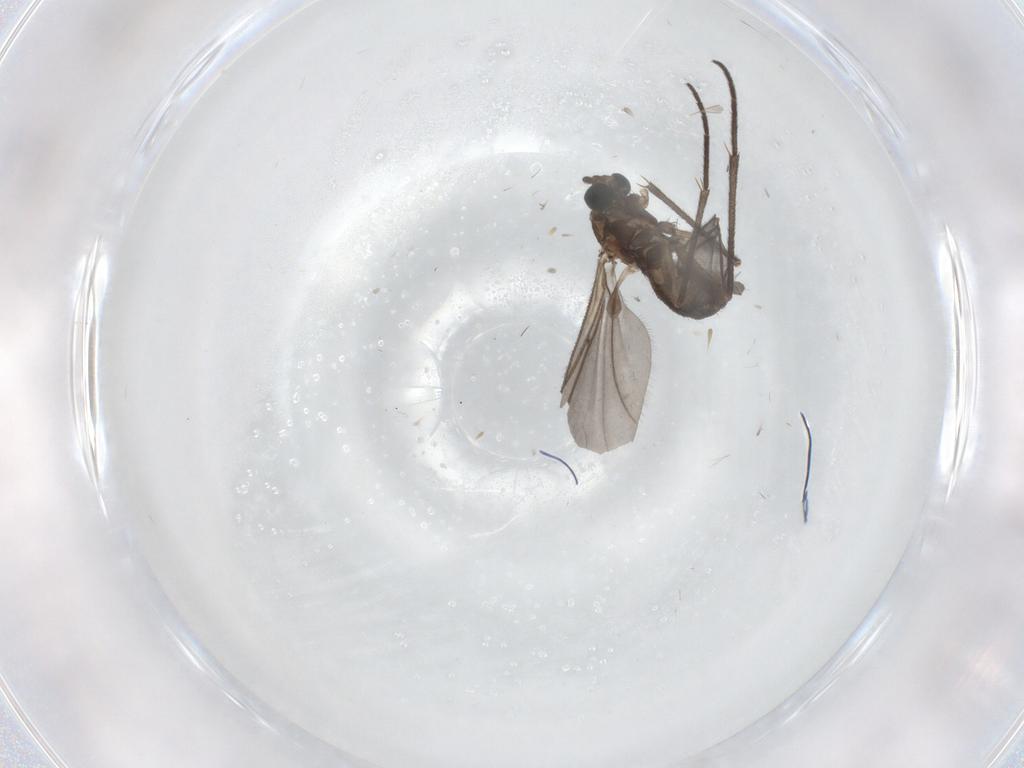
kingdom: Animalia
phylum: Arthropoda
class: Insecta
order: Diptera
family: Sciaridae
